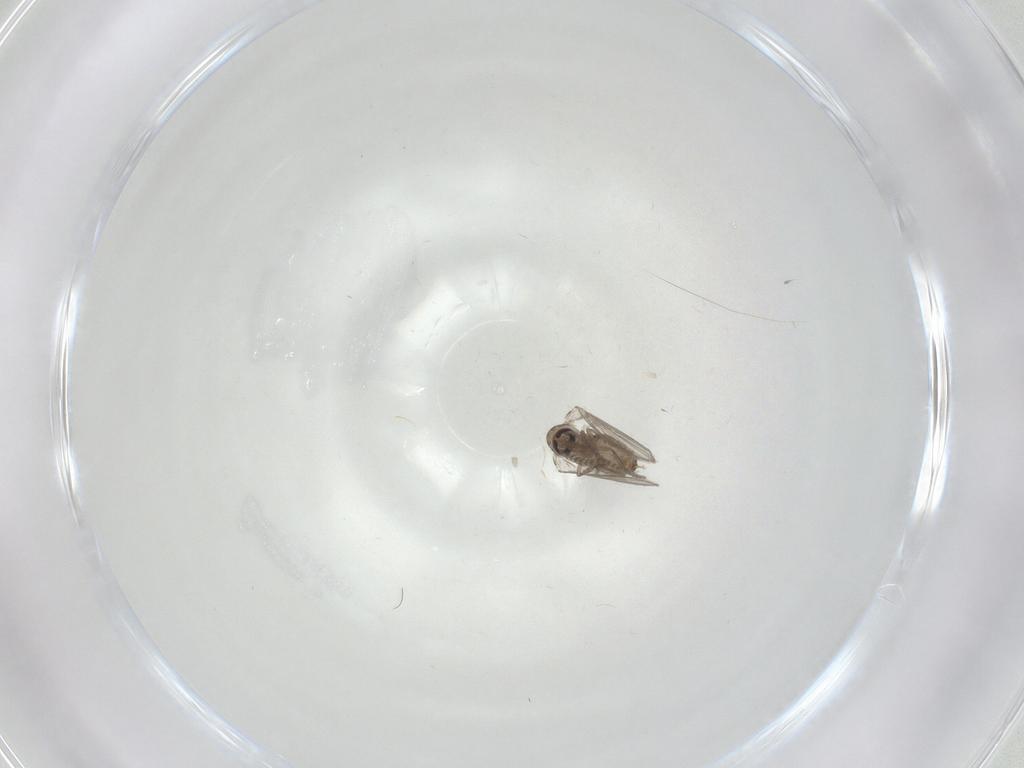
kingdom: Animalia
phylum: Arthropoda
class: Insecta
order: Diptera
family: Psychodidae
